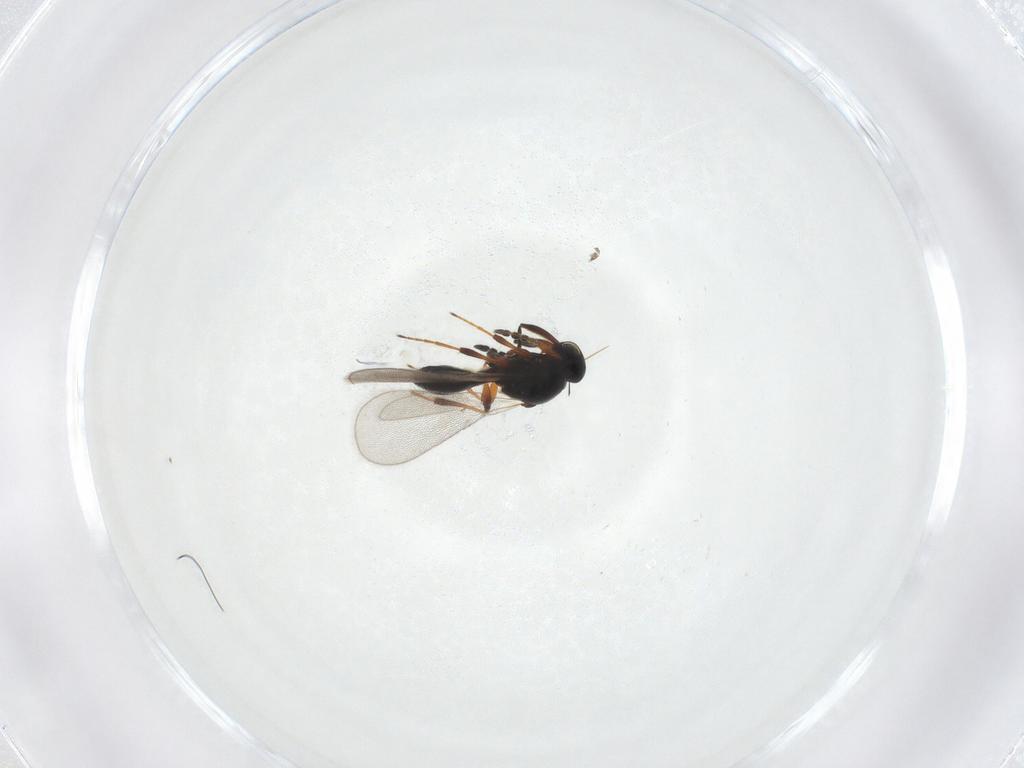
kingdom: Animalia
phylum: Arthropoda
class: Insecta
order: Hymenoptera
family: Platygastridae
